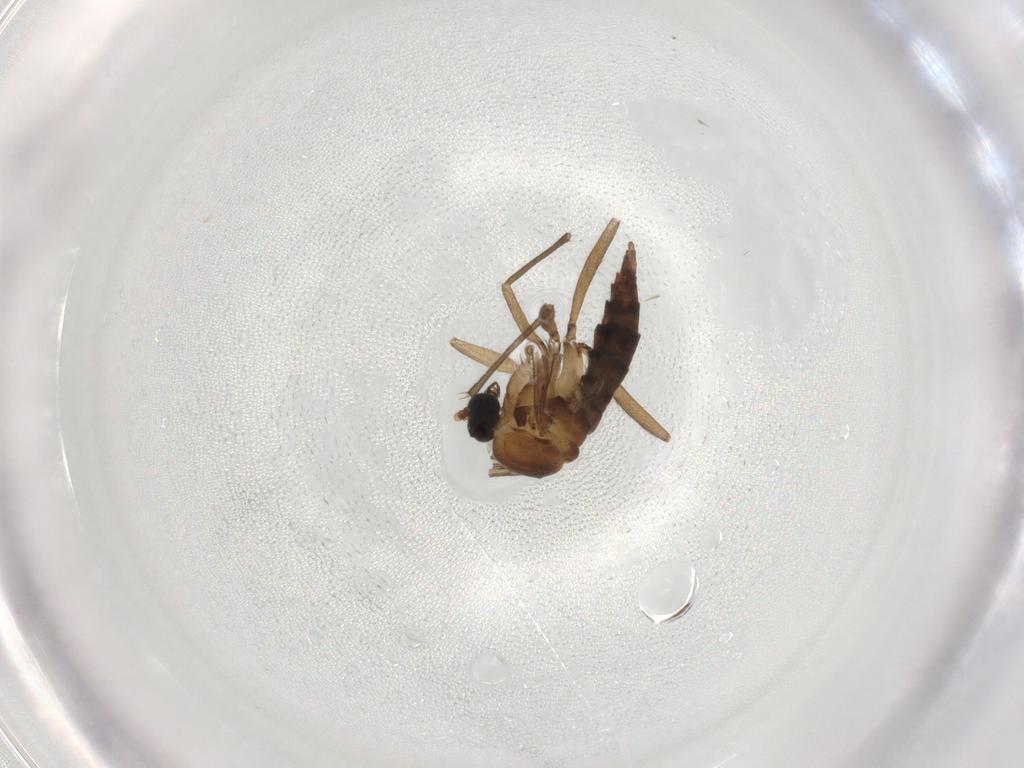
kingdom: Animalia
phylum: Arthropoda
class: Insecta
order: Diptera
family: Sciaridae
